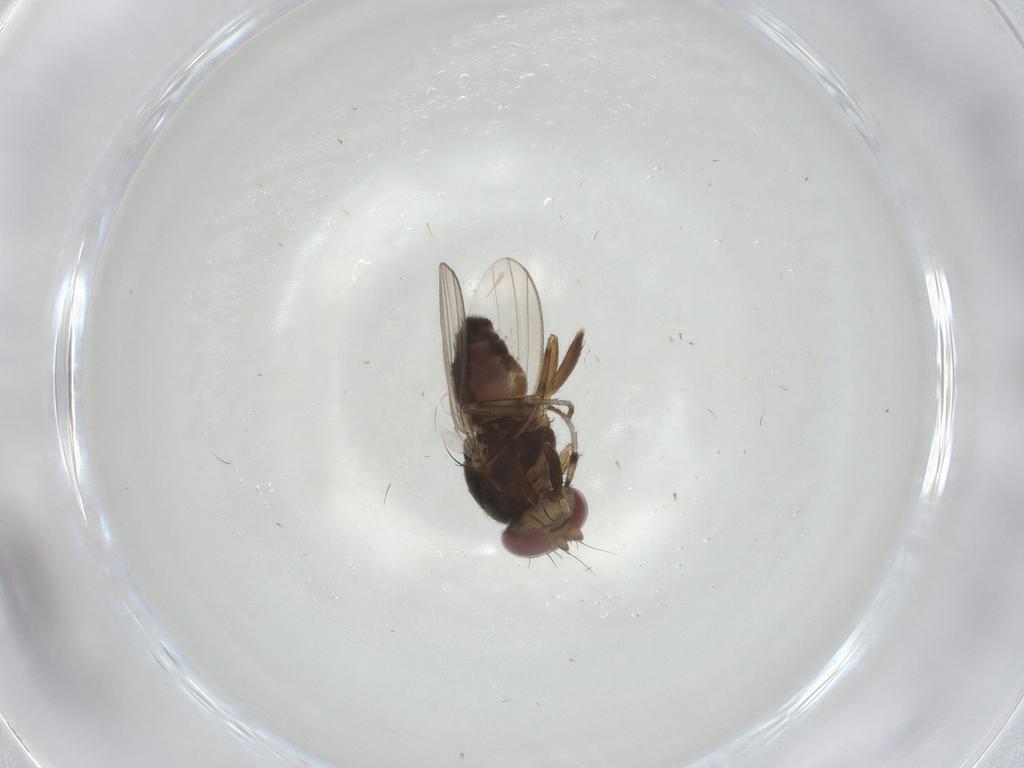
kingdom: Animalia
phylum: Arthropoda
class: Insecta
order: Diptera
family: Heleomyzidae
